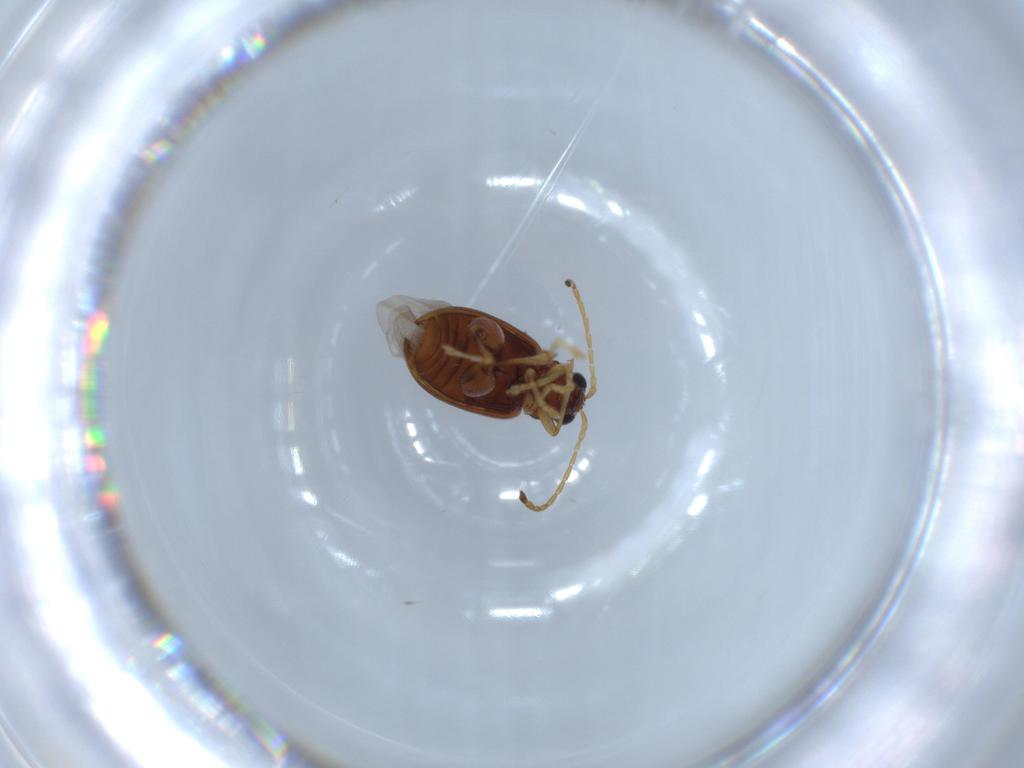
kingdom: Animalia
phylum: Arthropoda
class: Insecta
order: Coleoptera
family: Chrysomelidae
